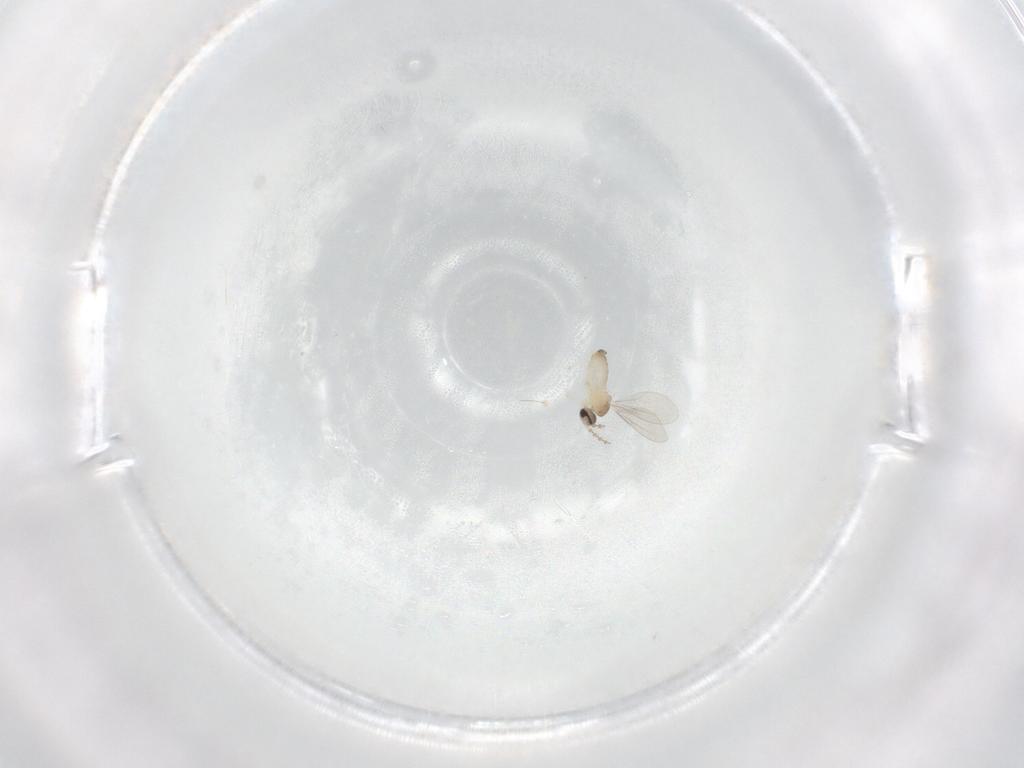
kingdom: Animalia
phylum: Arthropoda
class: Insecta
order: Diptera
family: Cecidomyiidae
